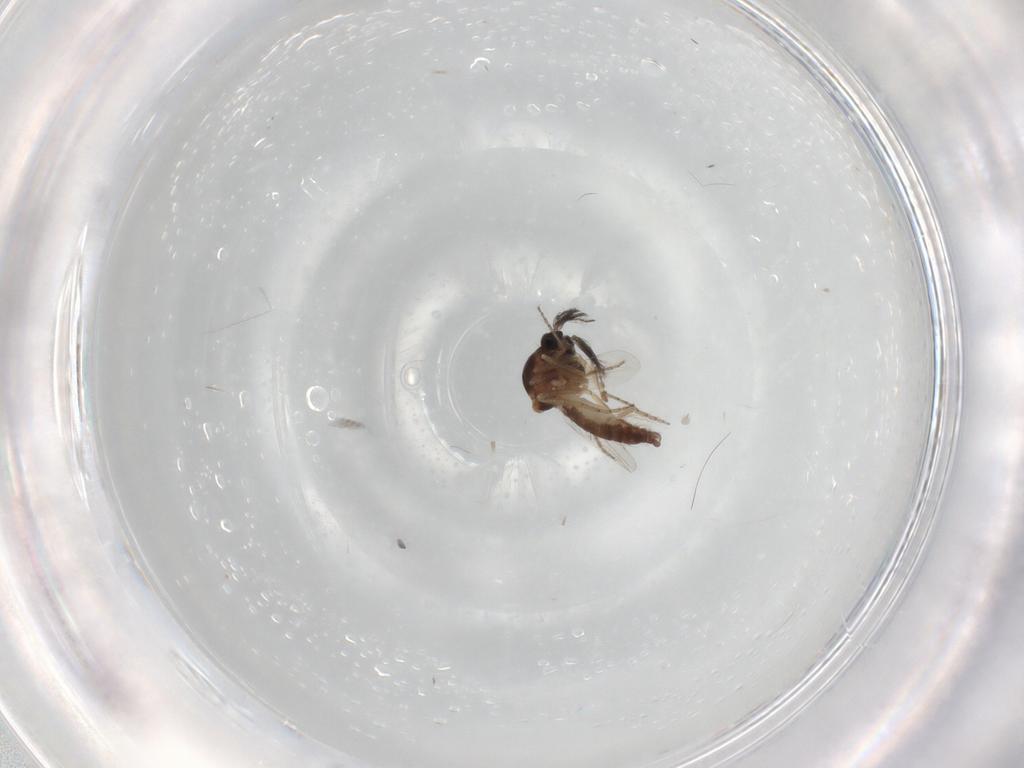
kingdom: Animalia
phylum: Arthropoda
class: Insecta
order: Diptera
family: Ceratopogonidae
